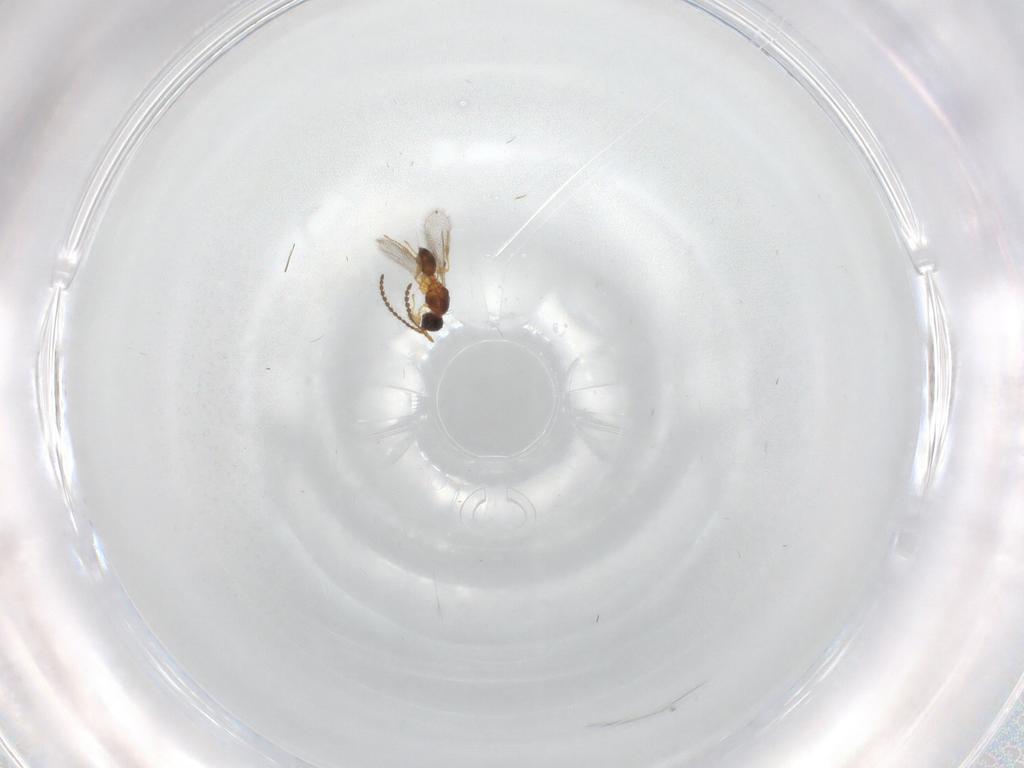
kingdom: Animalia
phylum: Arthropoda
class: Insecta
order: Hymenoptera
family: Diapriidae
